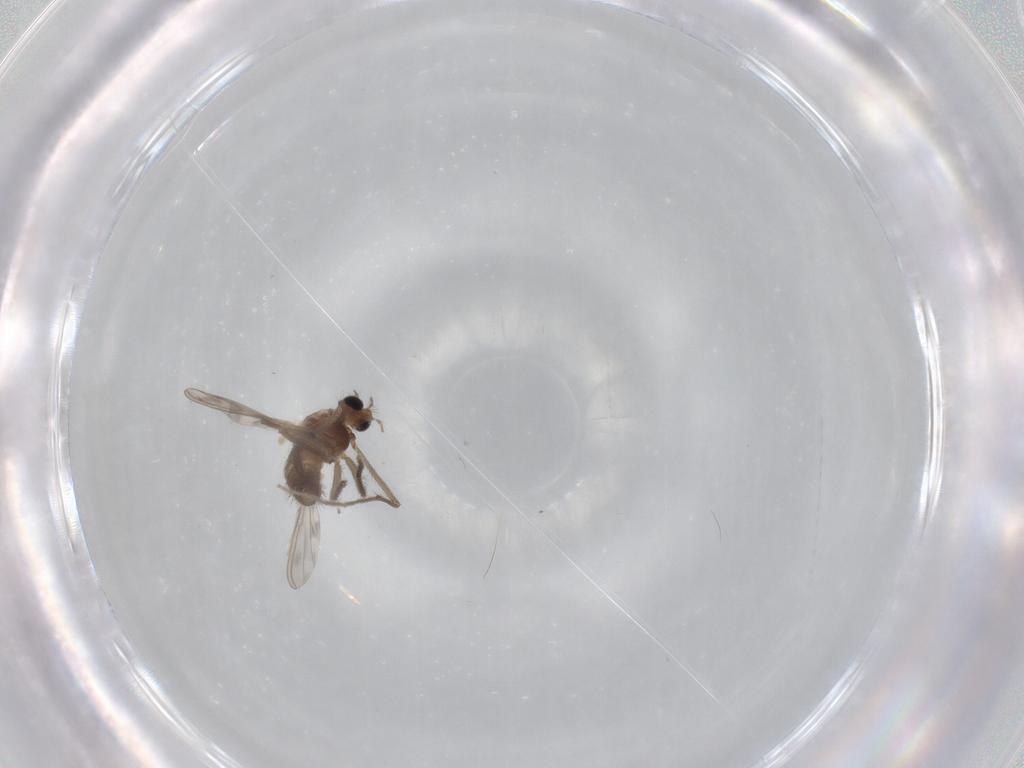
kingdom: Animalia
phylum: Arthropoda
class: Insecta
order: Diptera
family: Chironomidae
